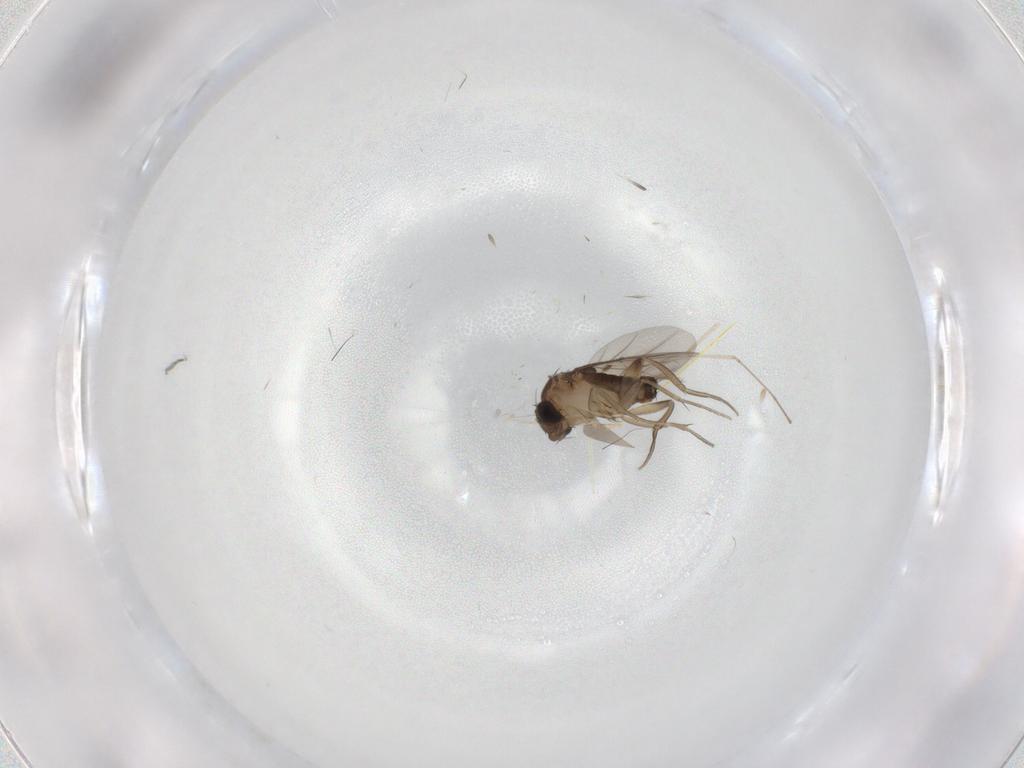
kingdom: Animalia
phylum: Arthropoda
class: Insecta
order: Diptera
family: Phoridae
